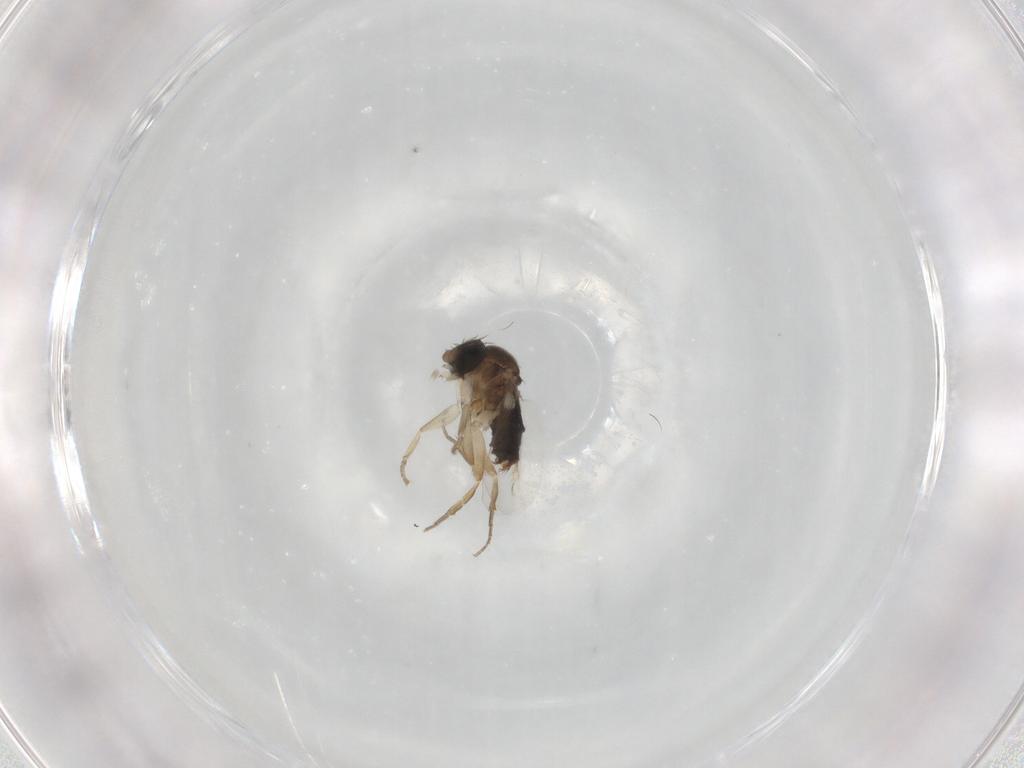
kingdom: Animalia
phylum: Arthropoda
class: Insecta
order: Diptera
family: Phoridae
